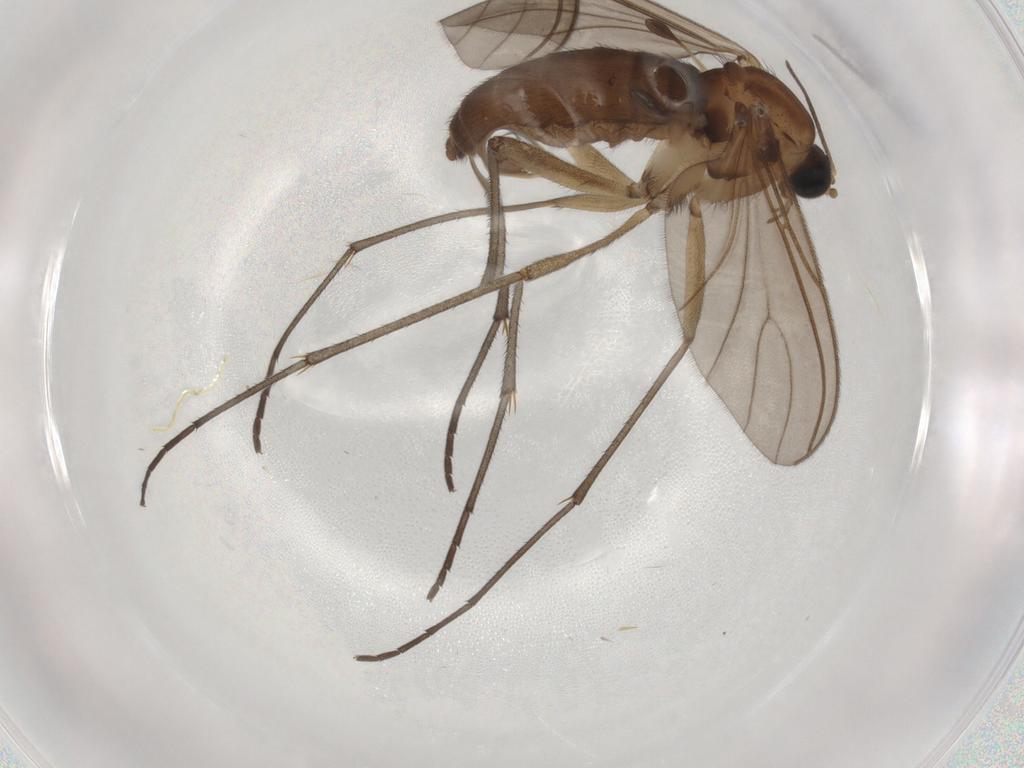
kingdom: Animalia
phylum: Arthropoda
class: Insecta
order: Diptera
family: Sciaridae
